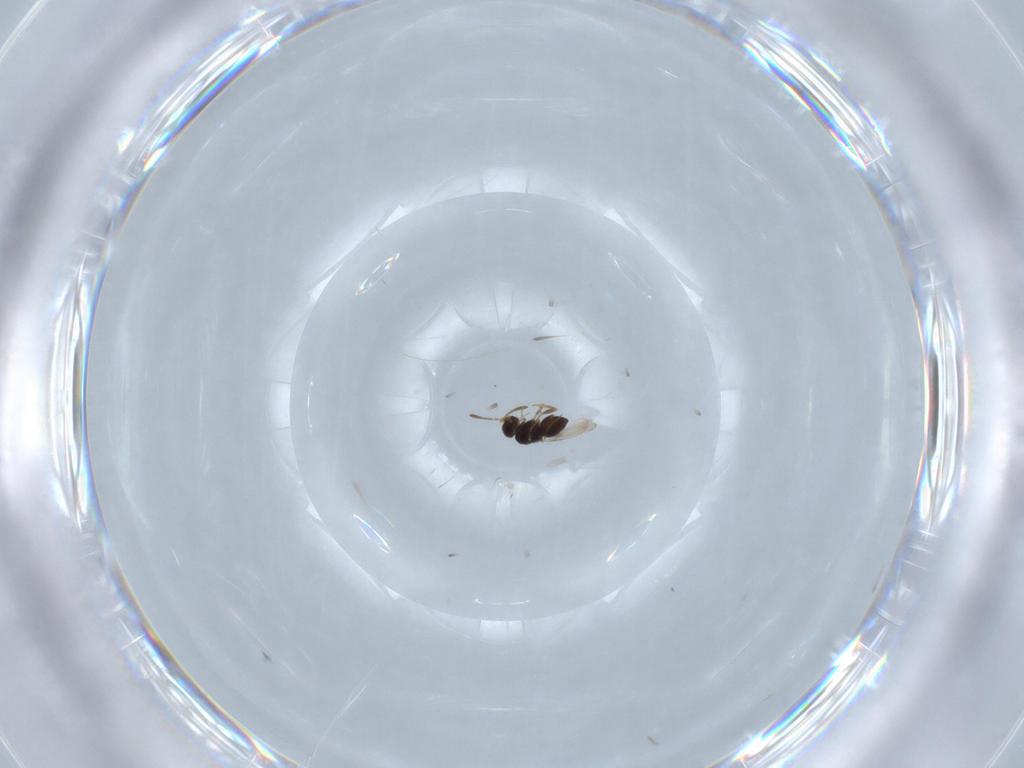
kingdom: Animalia
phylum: Arthropoda
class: Insecta
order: Hymenoptera
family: Ceraphronidae
